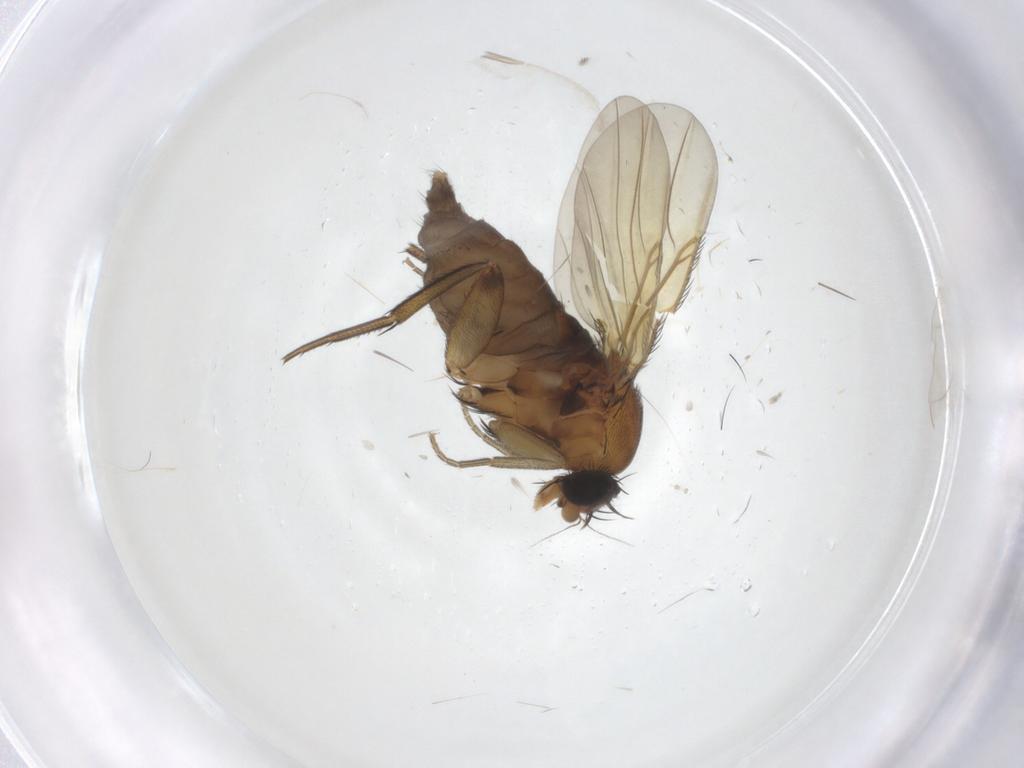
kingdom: Animalia
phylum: Arthropoda
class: Insecta
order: Diptera
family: Phoridae
